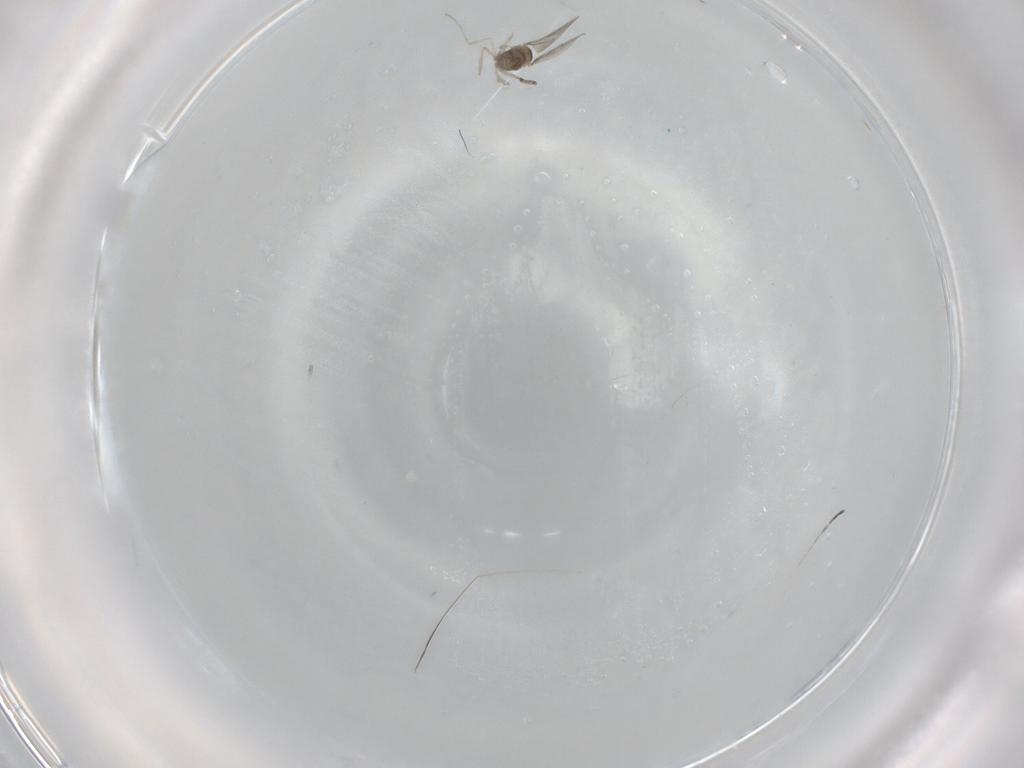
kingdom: Animalia
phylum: Arthropoda
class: Insecta
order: Diptera
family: Cecidomyiidae
